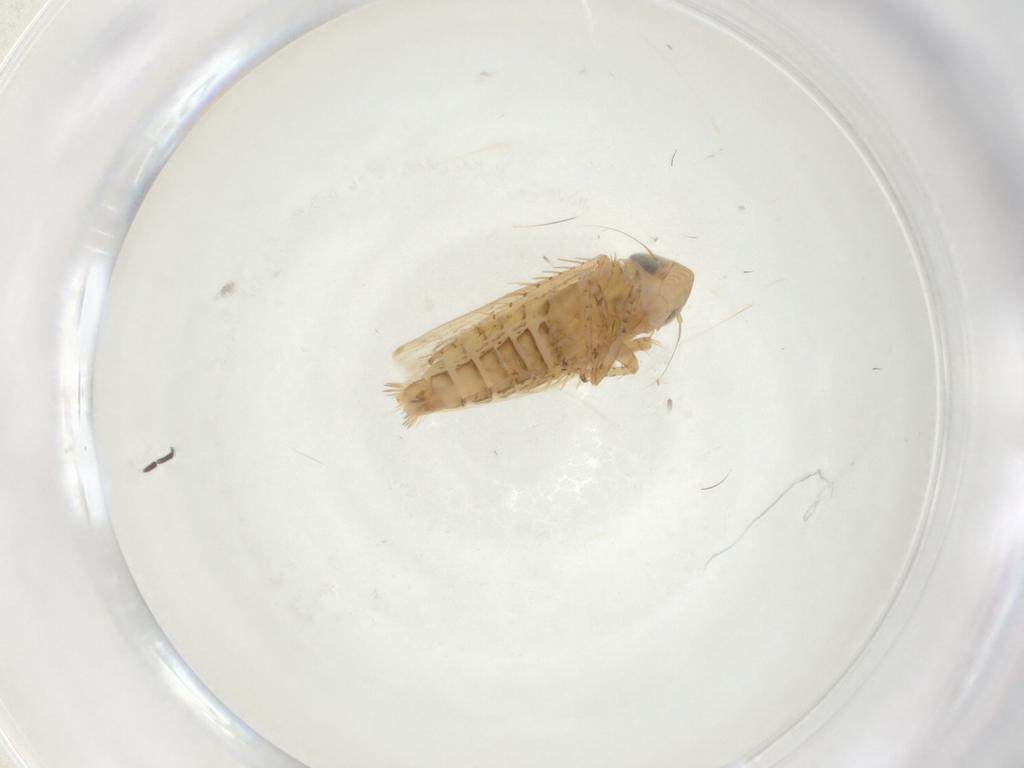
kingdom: Animalia
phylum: Arthropoda
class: Insecta
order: Hemiptera
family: Cicadellidae
